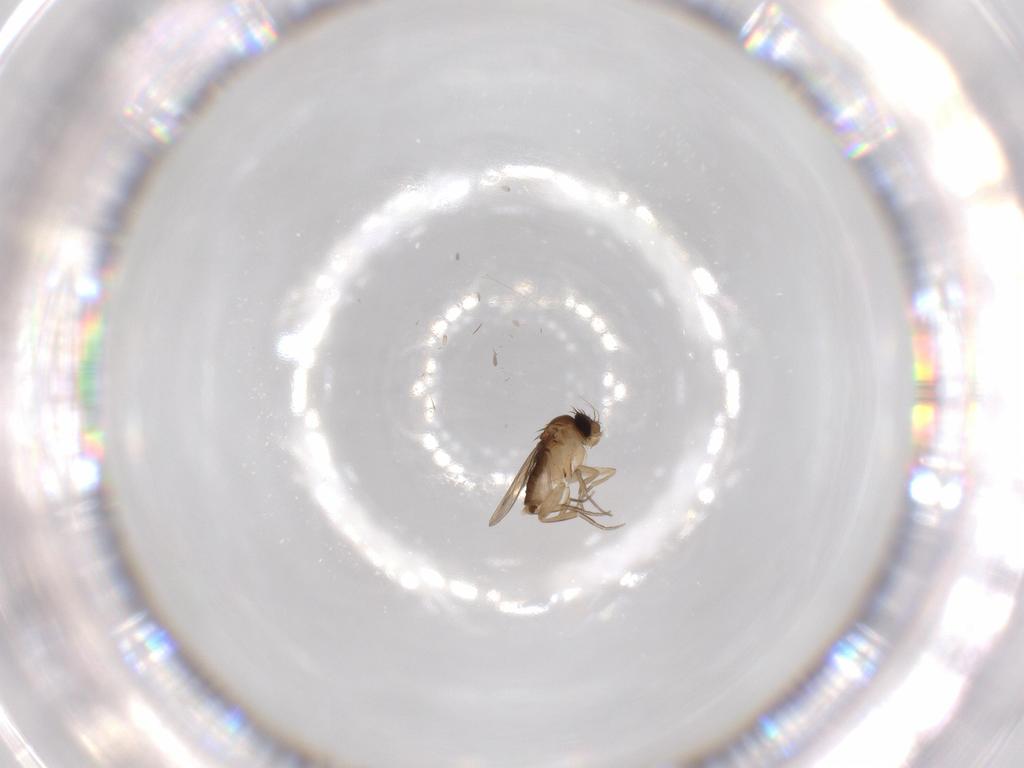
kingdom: Animalia
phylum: Arthropoda
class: Insecta
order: Diptera
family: Phoridae
